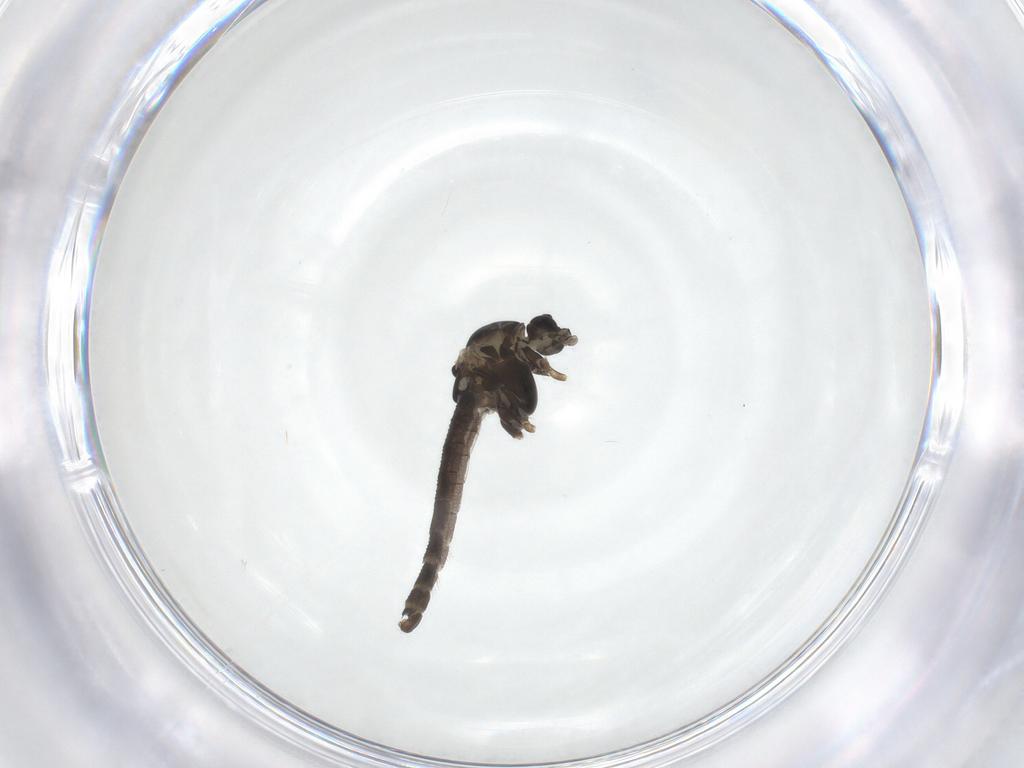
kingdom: Animalia
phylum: Arthropoda
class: Insecta
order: Diptera
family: Chironomidae
